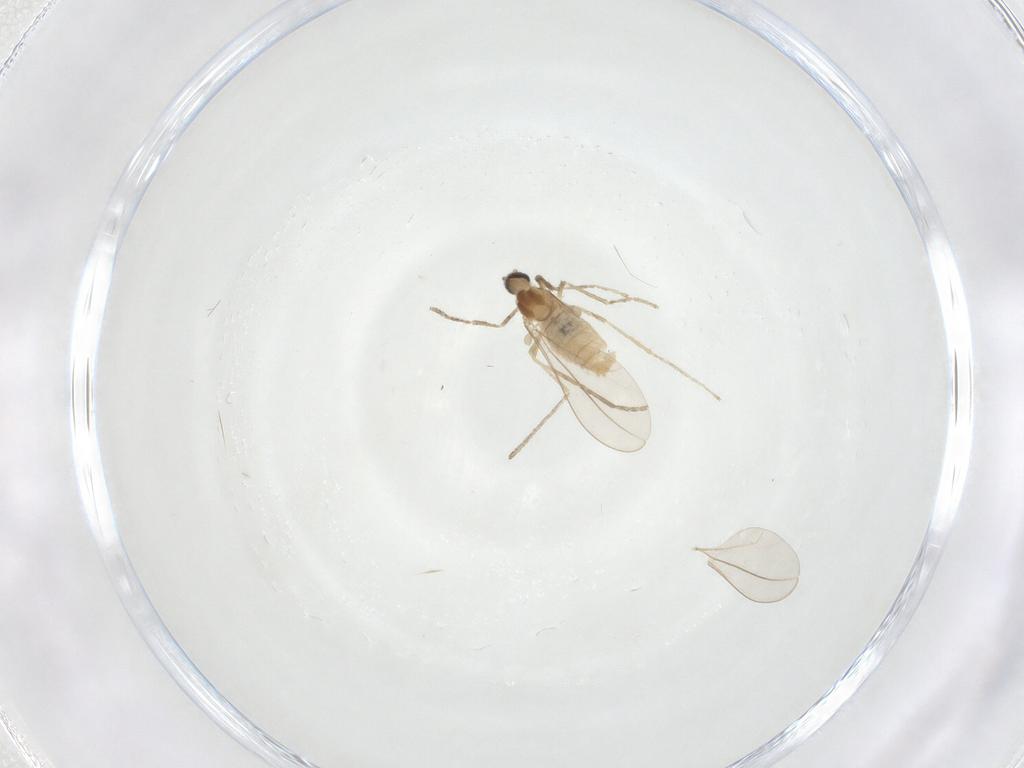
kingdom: Animalia
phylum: Arthropoda
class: Insecta
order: Diptera
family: Cecidomyiidae
